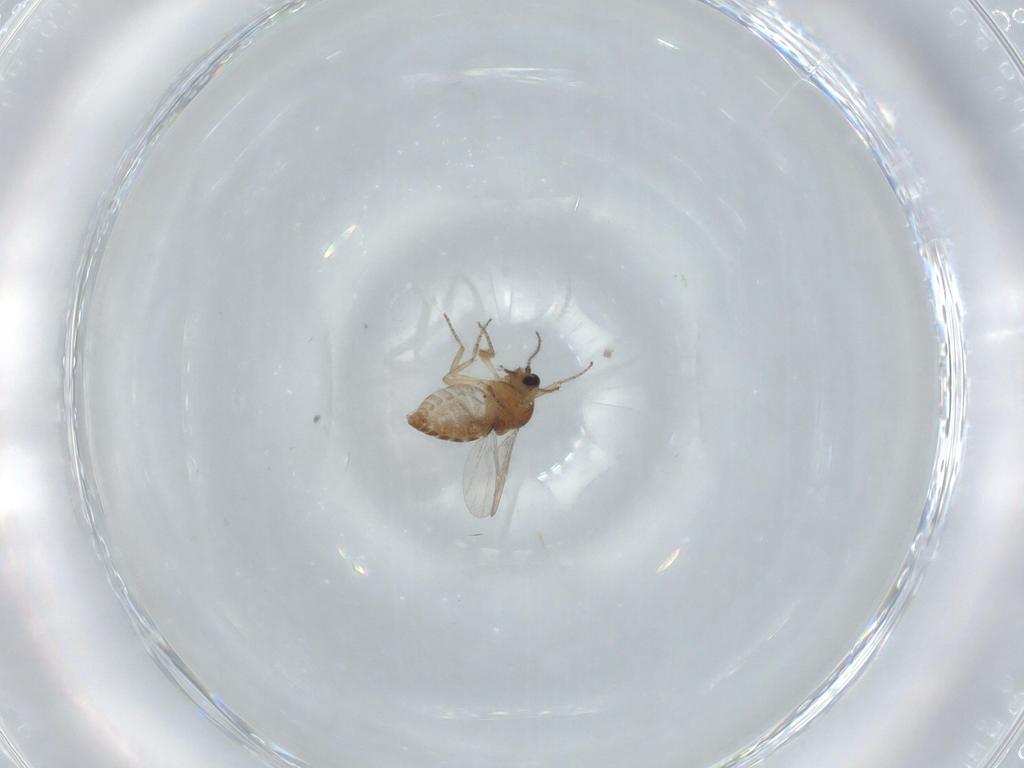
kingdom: Animalia
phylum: Arthropoda
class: Insecta
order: Diptera
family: Ceratopogonidae
